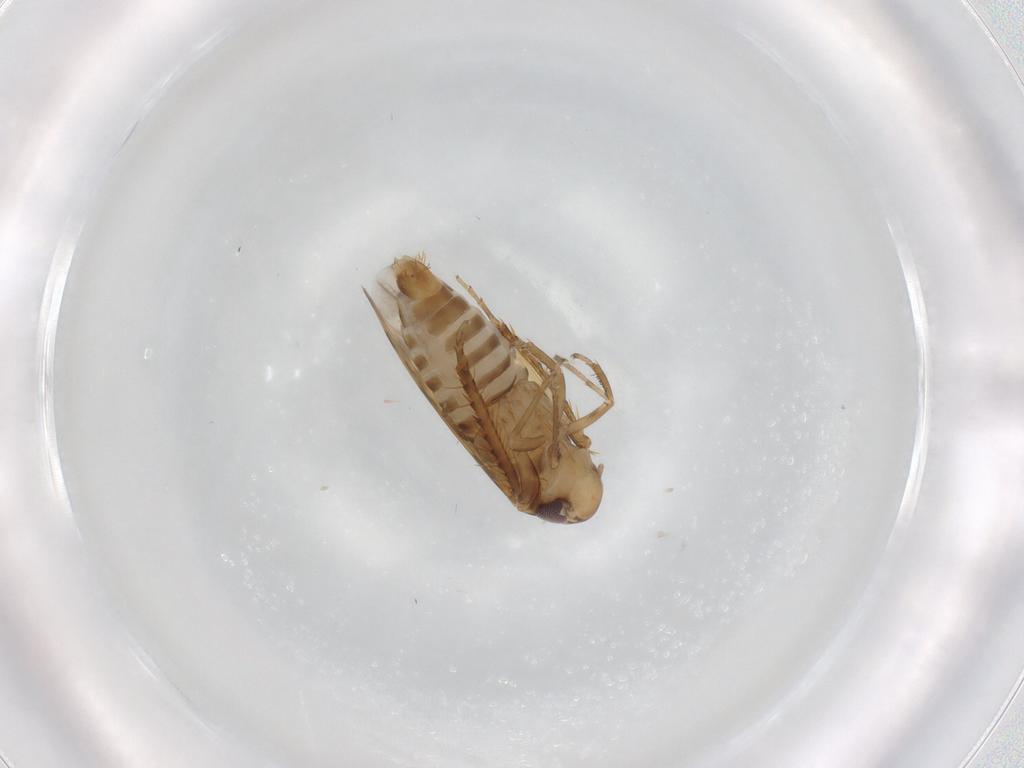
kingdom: Animalia
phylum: Arthropoda
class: Insecta
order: Hemiptera
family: Cicadellidae
